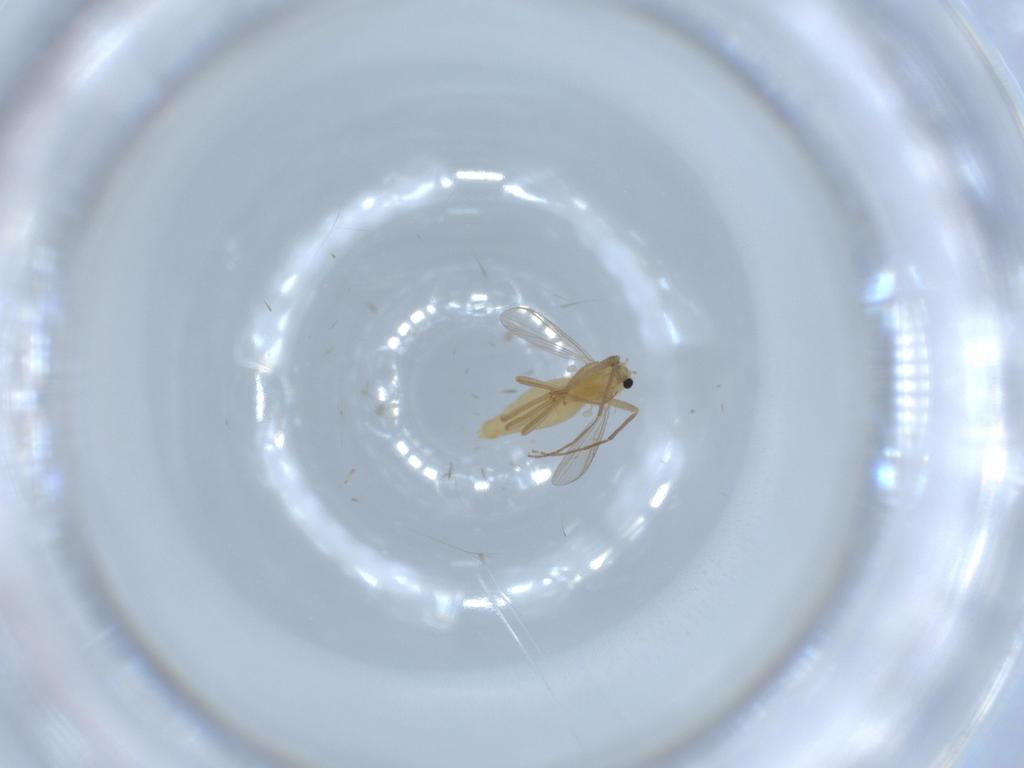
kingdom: Animalia
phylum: Arthropoda
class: Insecta
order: Diptera
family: Chironomidae
